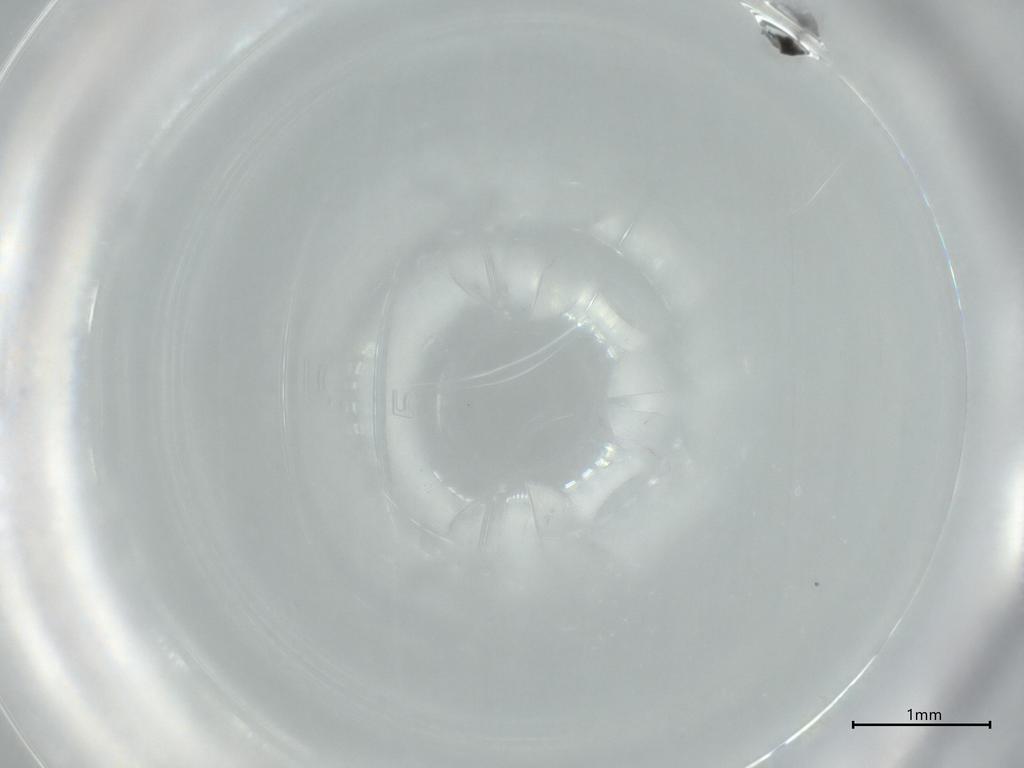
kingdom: Animalia
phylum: Arthropoda
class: Insecta
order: Hymenoptera
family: Aphelinidae
